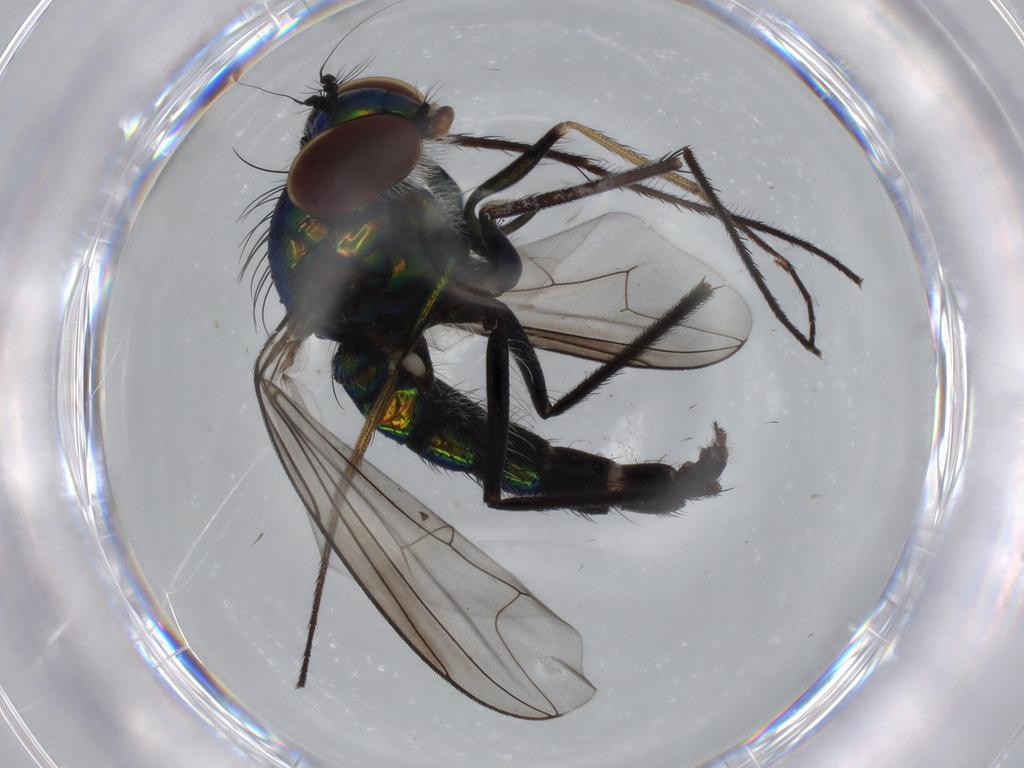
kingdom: Animalia
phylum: Arthropoda
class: Insecta
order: Diptera
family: Ceratopogonidae
